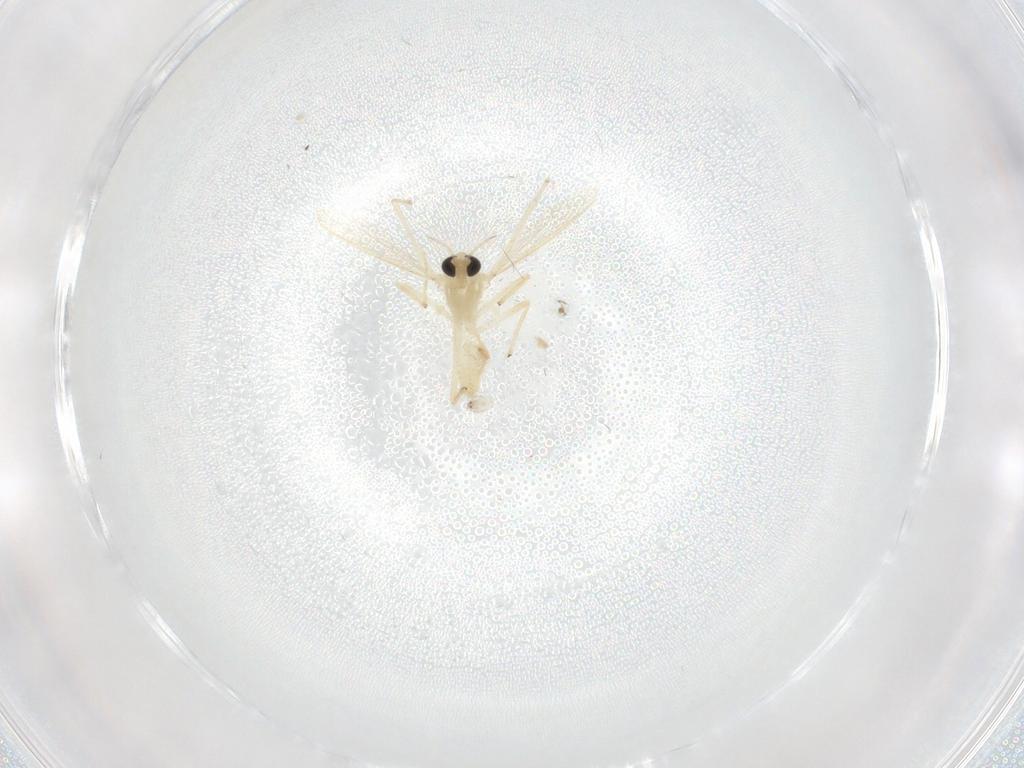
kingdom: Animalia
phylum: Arthropoda
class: Insecta
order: Diptera
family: Chironomidae
